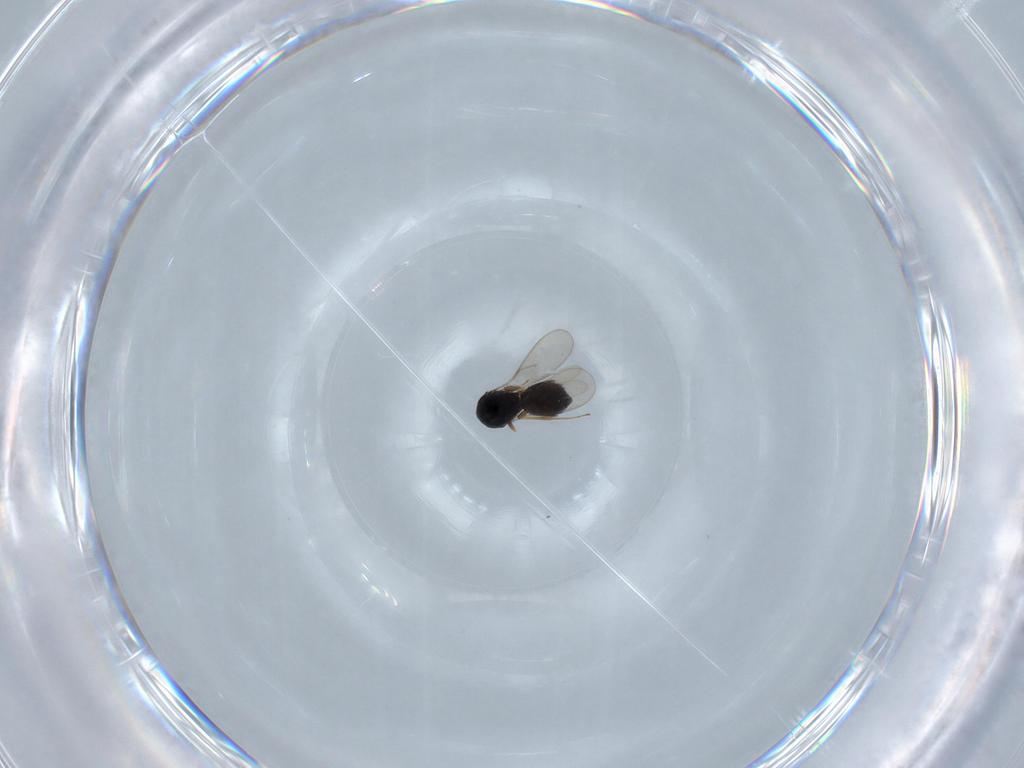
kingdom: Animalia
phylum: Arthropoda
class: Insecta
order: Hymenoptera
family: Scelionidae
